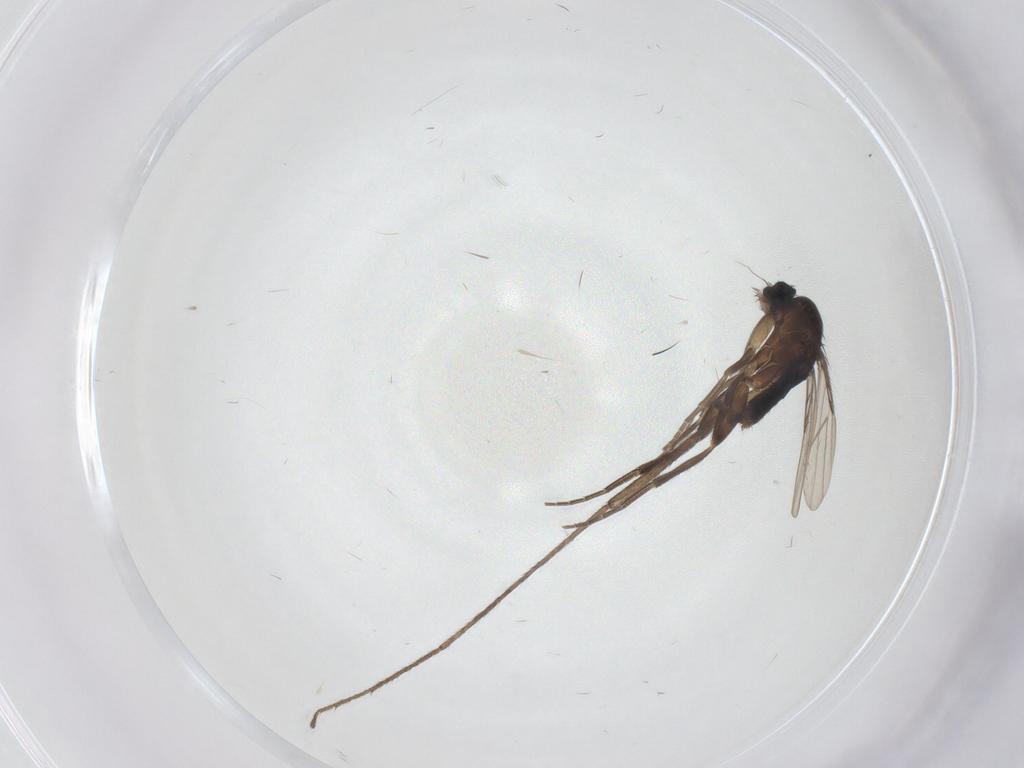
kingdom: Animalia
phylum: Arthropoda
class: Insecta
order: Diptera
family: Phoridae
